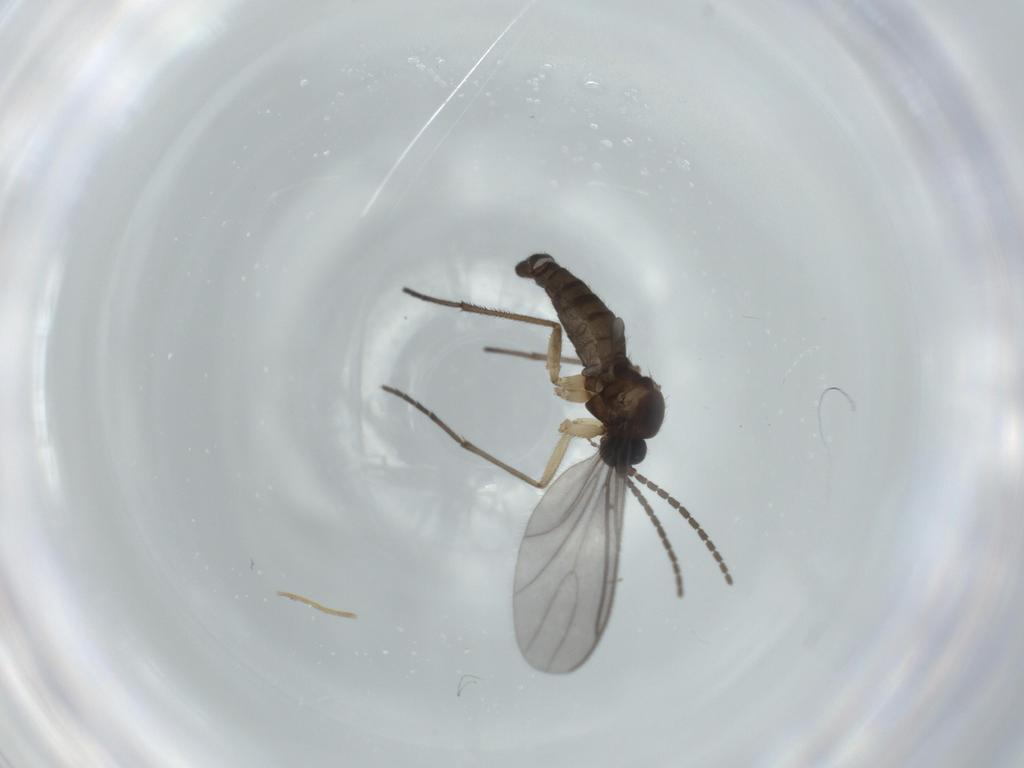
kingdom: Animalia
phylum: Arthropoda
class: Insecta
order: Diptera
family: Sciaridae
